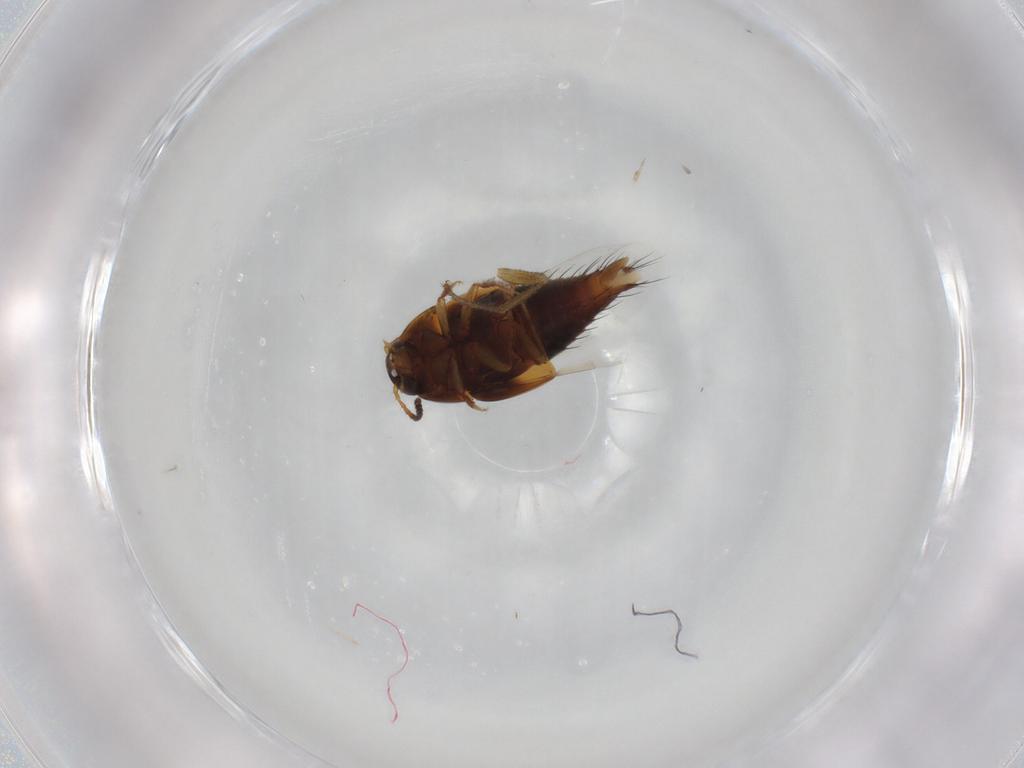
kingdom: Animalia
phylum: Arthropoda
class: Insecta
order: Coleoptera
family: Staphylinidae
